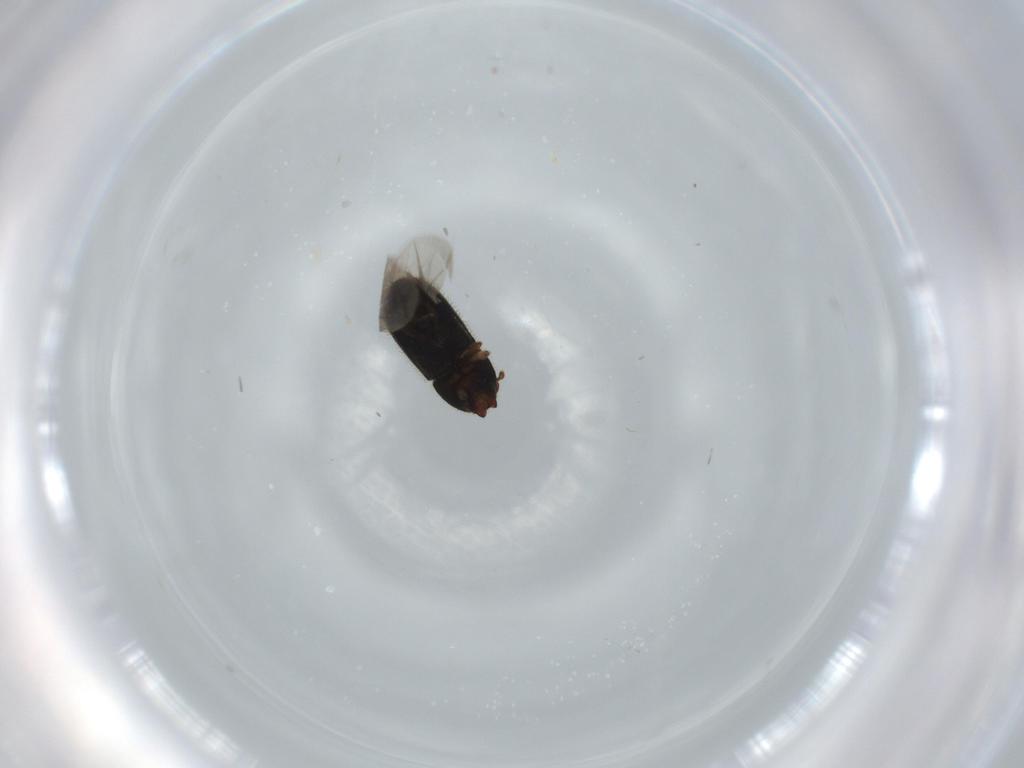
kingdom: Animalia
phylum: Arthropoda
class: Insecta
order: Coleoptera
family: Curculionidae
